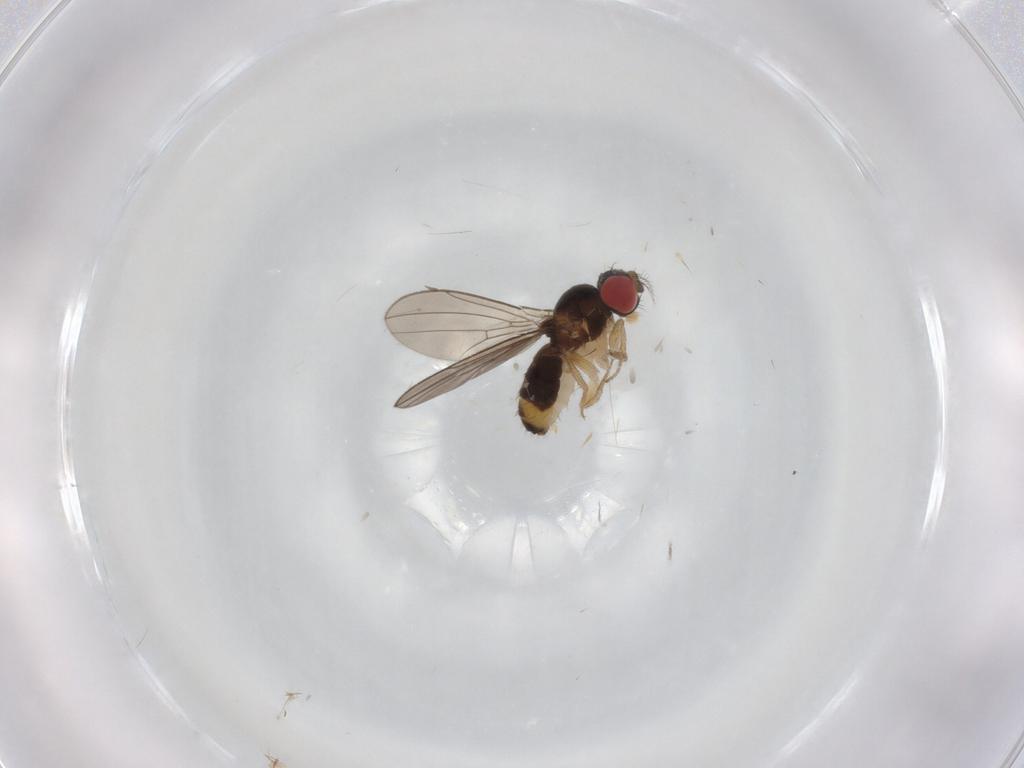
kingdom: Animalia
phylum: Arthropoda
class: Insecta
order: Diptera
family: Drosophilidae
